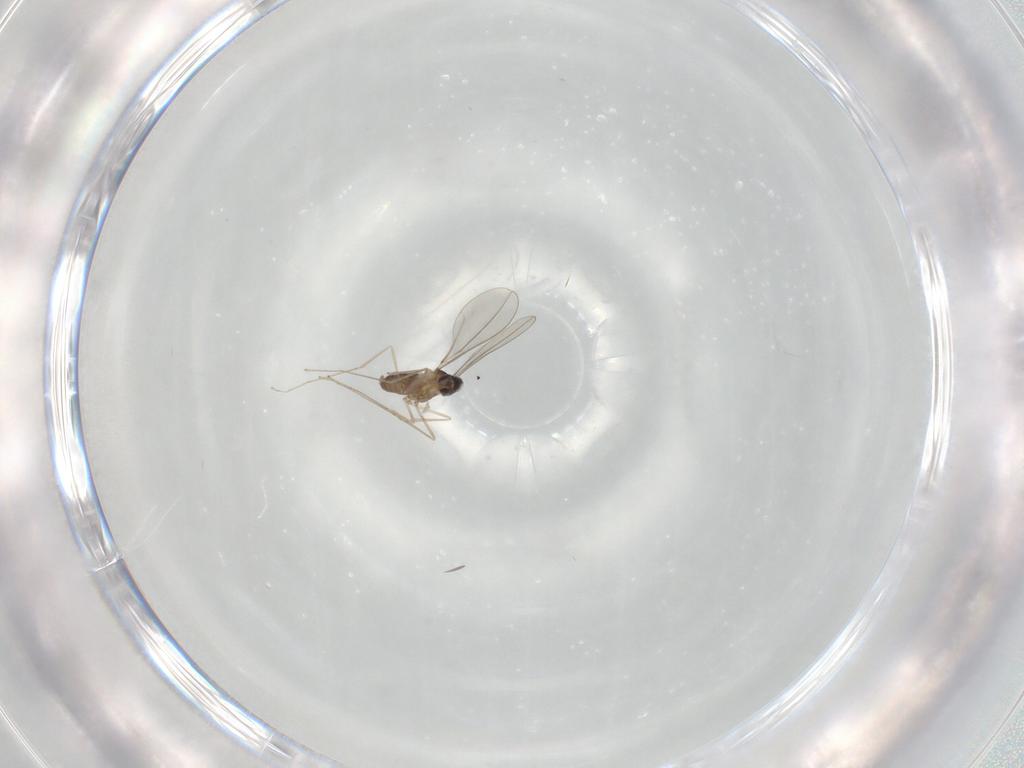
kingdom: Animalia
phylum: Arthropoda
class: Insecta
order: Diptera
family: Cecidomyiidae
